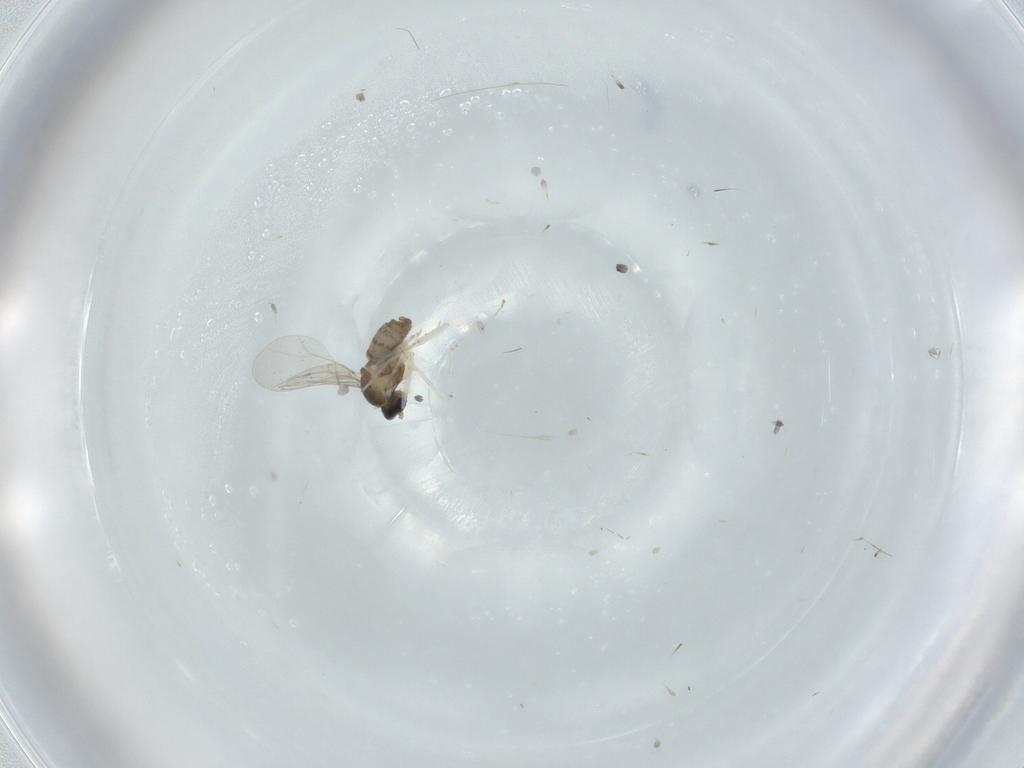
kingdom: Animalia
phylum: Arthropoda
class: Insecta
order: Diptera
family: Cecidomyiidae
